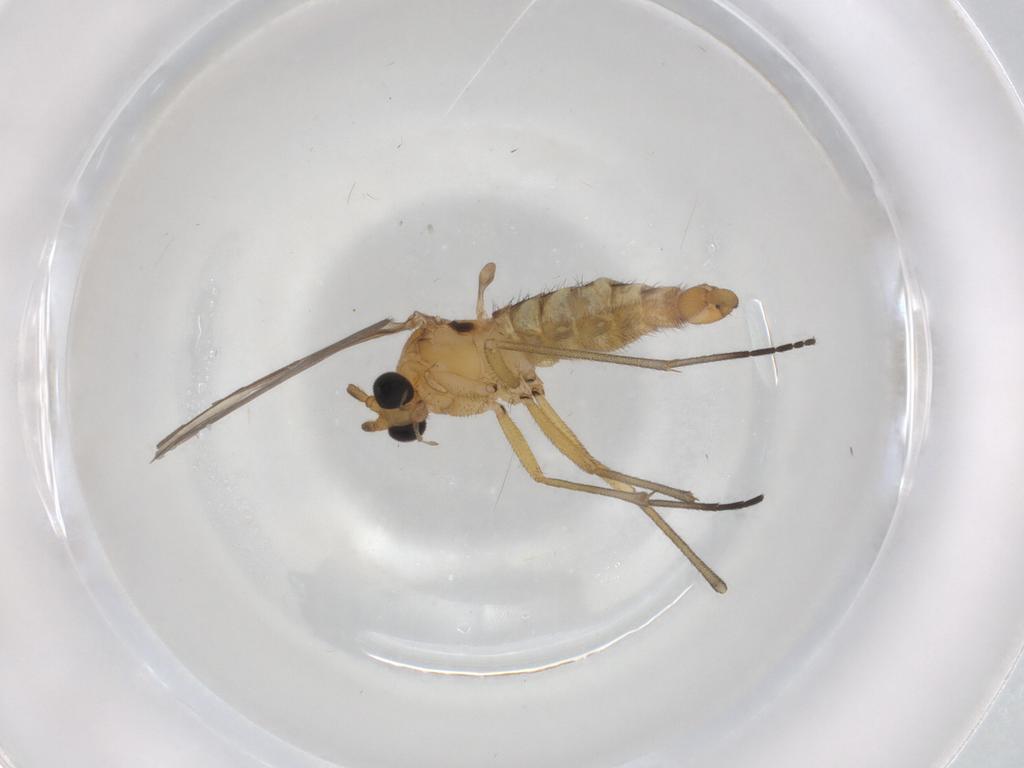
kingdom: Animalia
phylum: Arthropoda
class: Insecta
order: Diptera
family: Sciaridae
